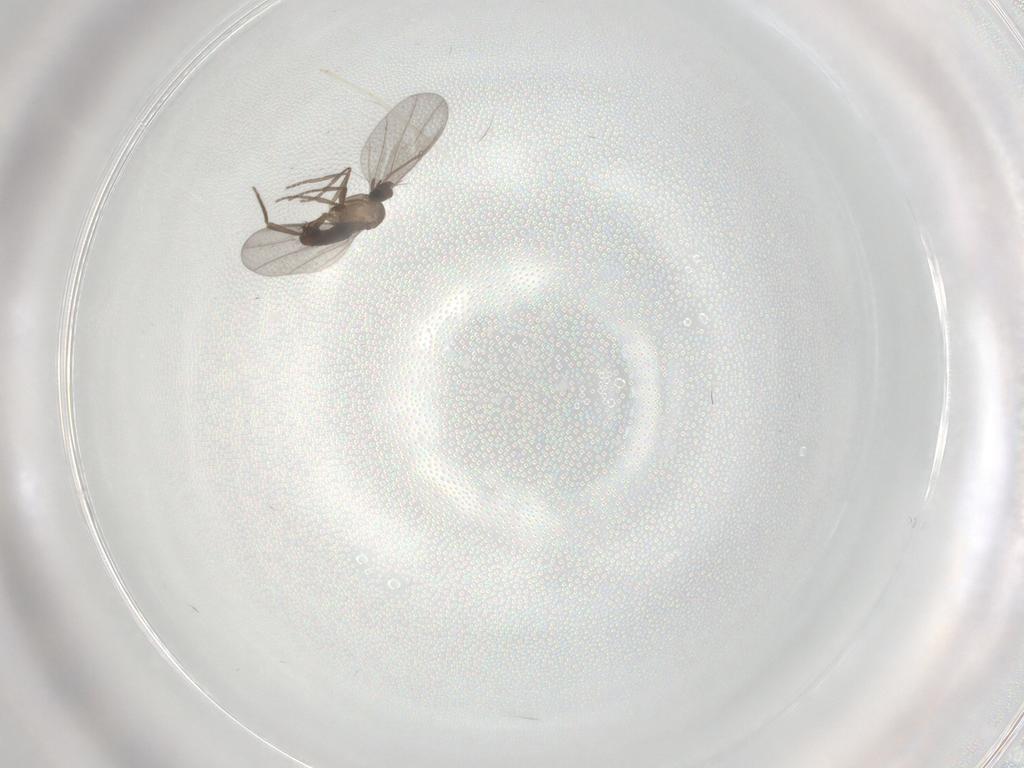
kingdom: Animalia
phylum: Arthropoda
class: Insecta
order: Diptera
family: Phoridae
